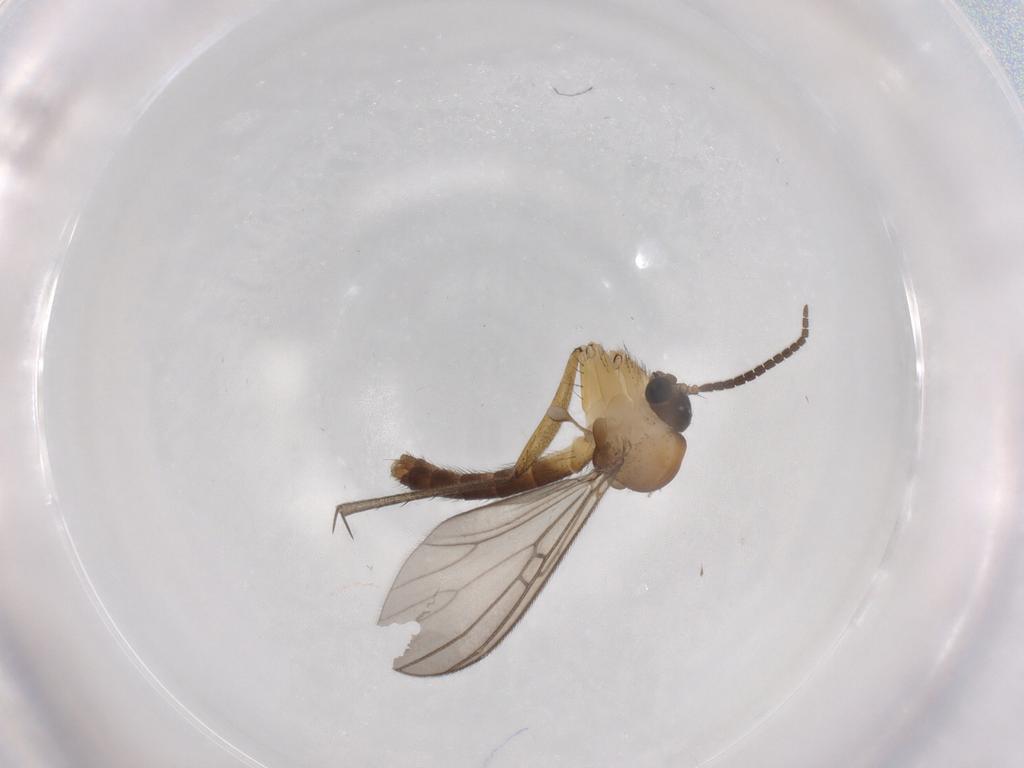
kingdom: Animalia
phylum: Arthropoda
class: Insecta
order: Diptera
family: Mycetophilidae
